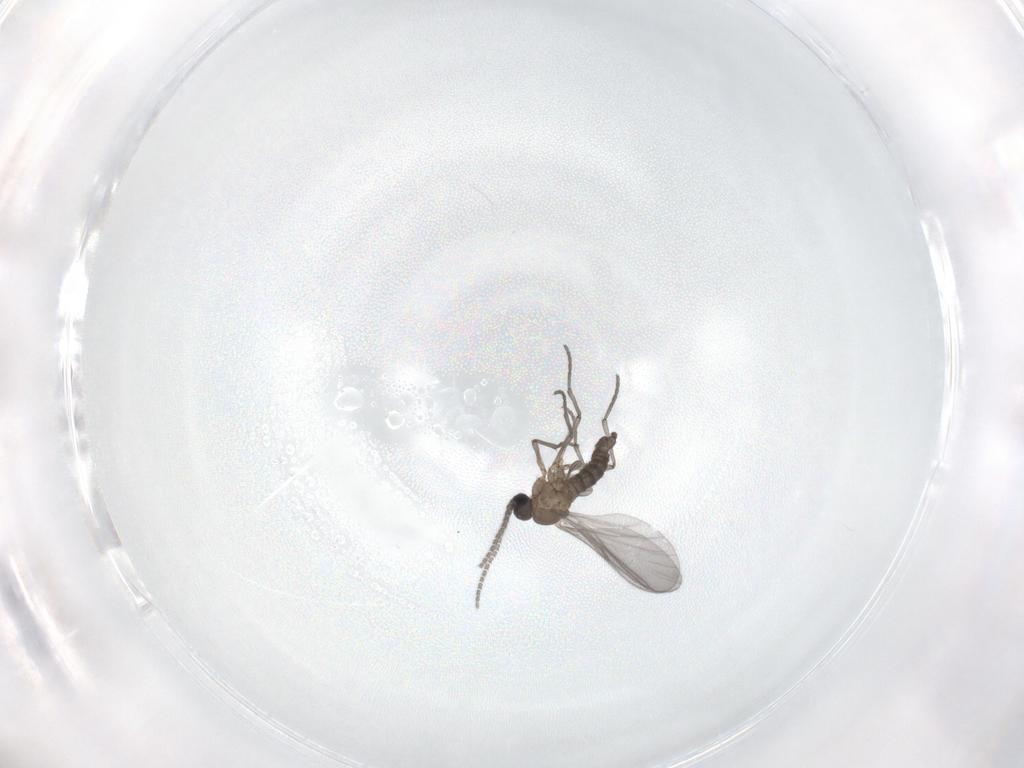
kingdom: Animalia
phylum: Arthropoda
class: Insecta
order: Diptera
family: Sciaridae
